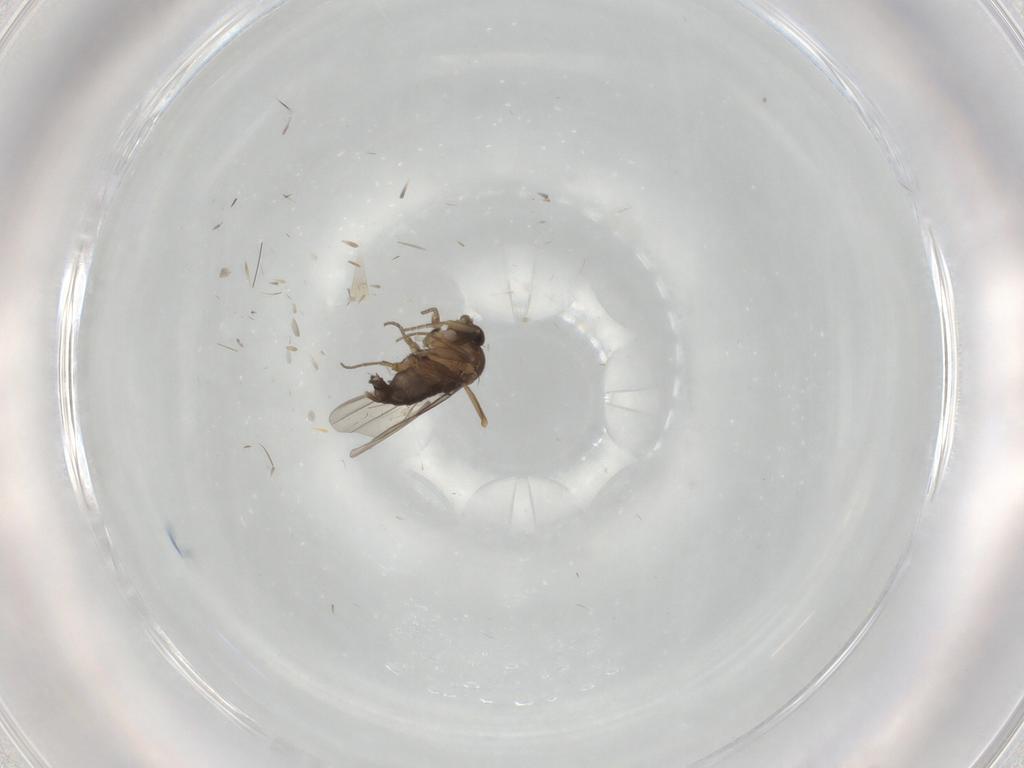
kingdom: Animalia
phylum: Arthropoda
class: Insecta
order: Diptera
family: Phoridae
